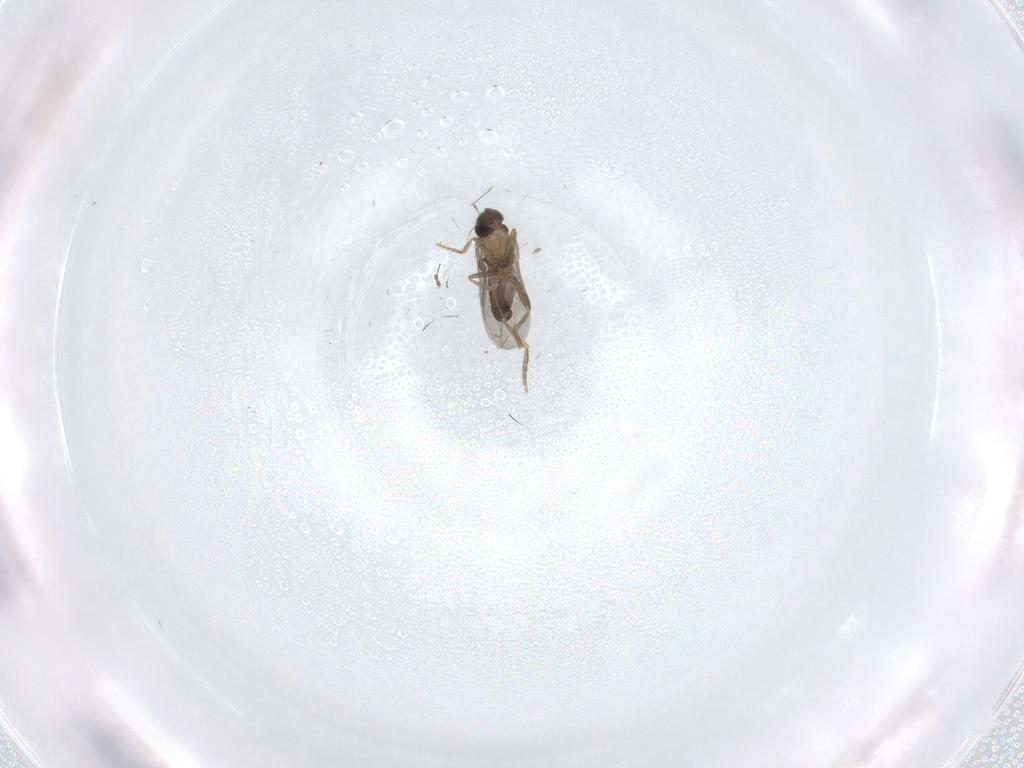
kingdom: Animalia
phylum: Arthropoda
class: Insecta
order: Diptera
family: Cecidomyiidae
